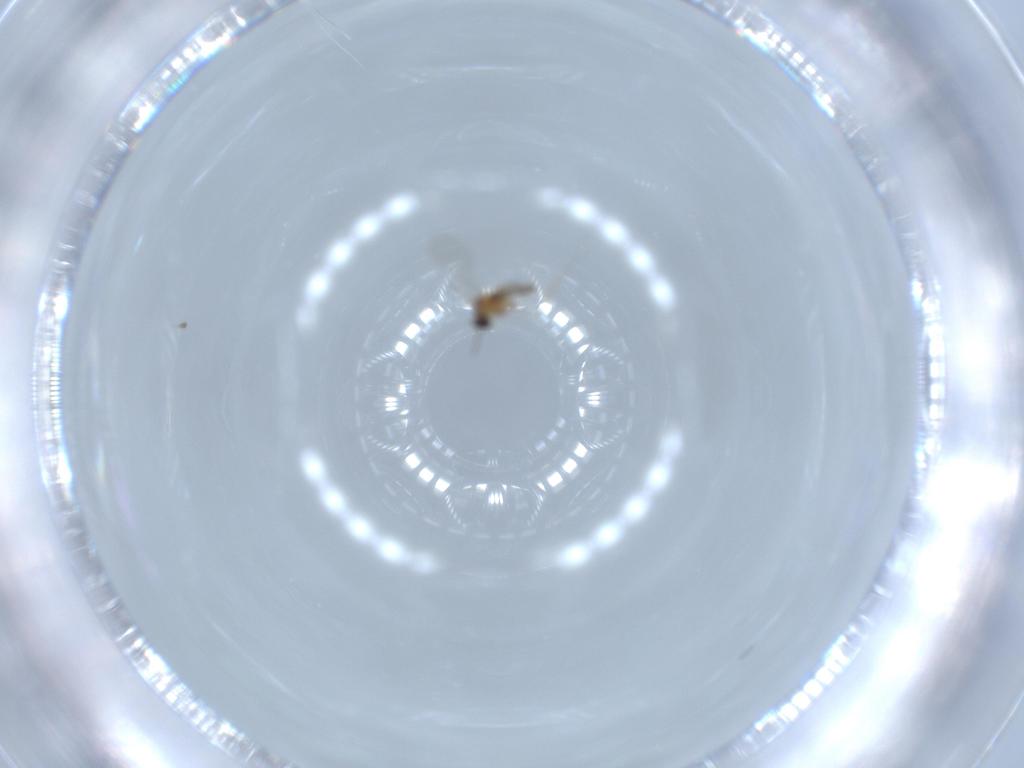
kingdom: Animalia
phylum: Arthropoda
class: Insecta
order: Diptera
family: Cecidomyiidae
